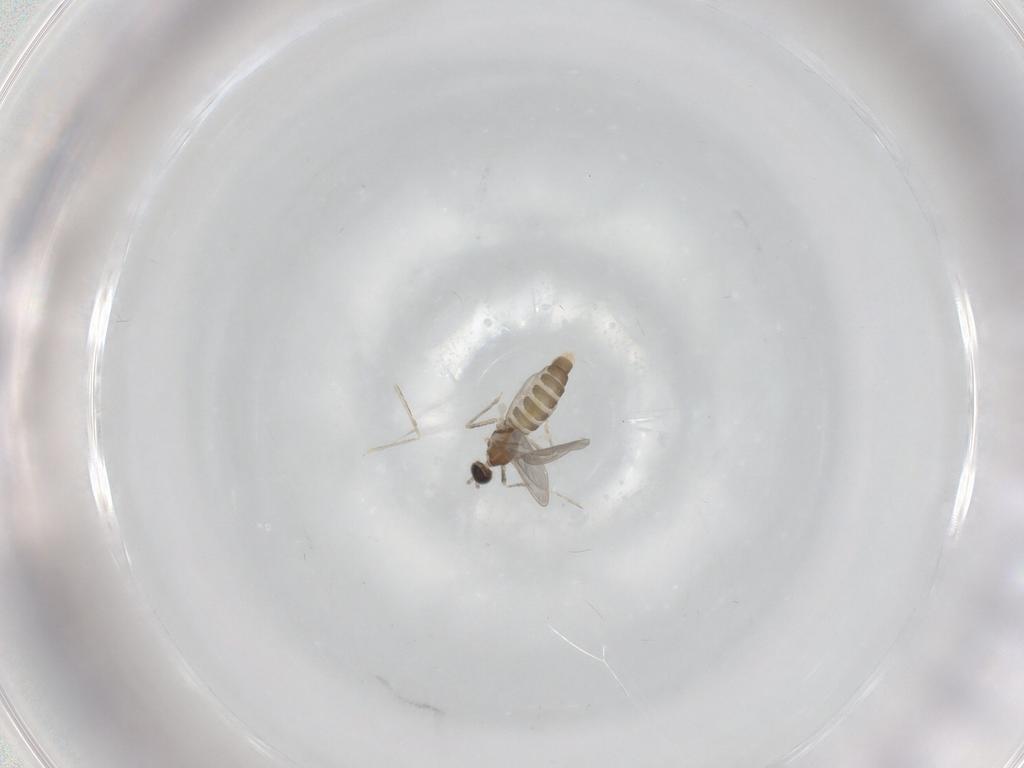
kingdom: Animalia
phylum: Arthropoda
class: Insecta
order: Diptera
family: Cecidomyiidae
